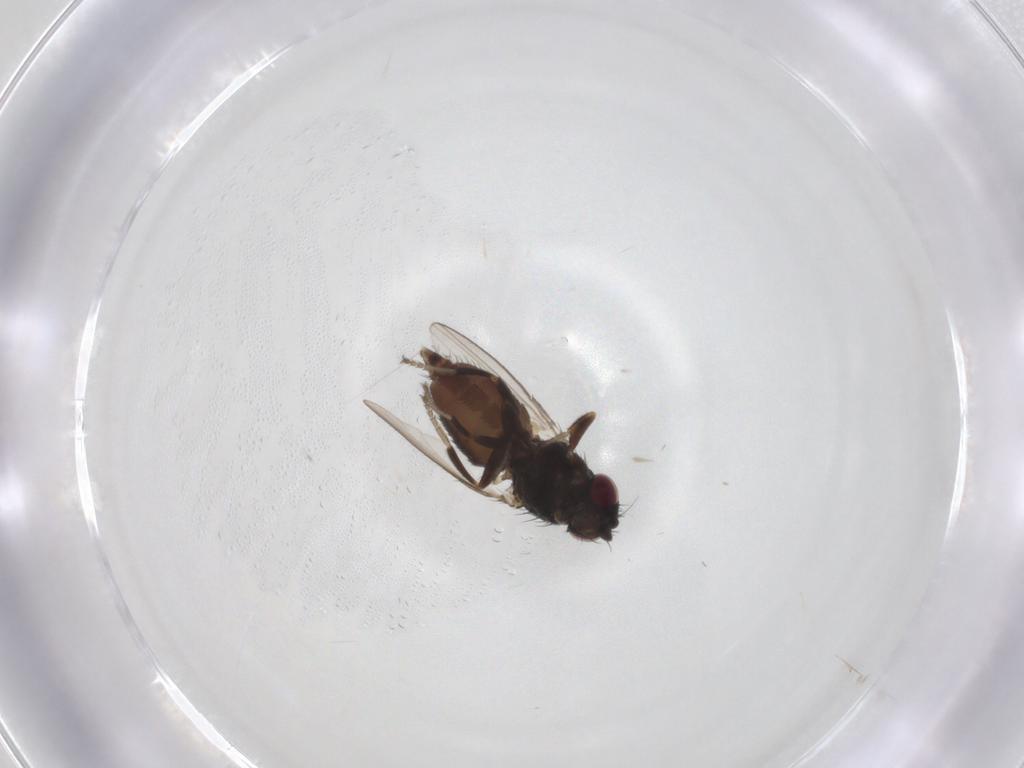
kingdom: Animalia
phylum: Arthropoda
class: Insecta
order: Diptera
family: Milichiidae
